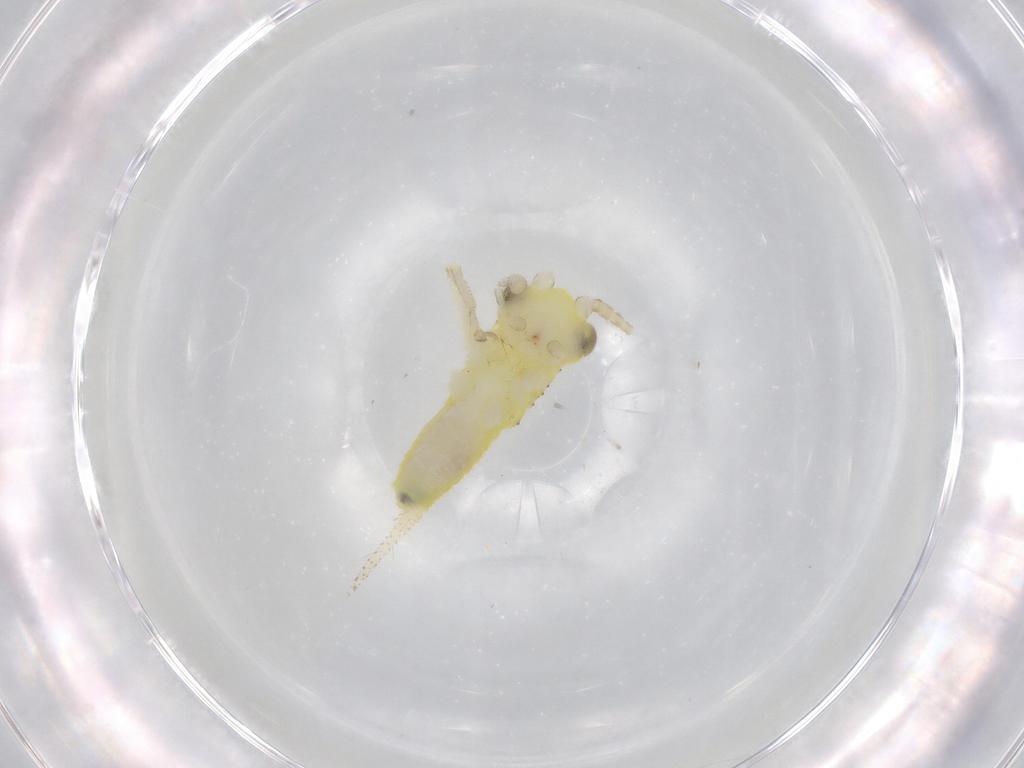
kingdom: Animalia
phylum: Arthropoda
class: Insecta
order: Orthoptera
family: Trigonidiidae
